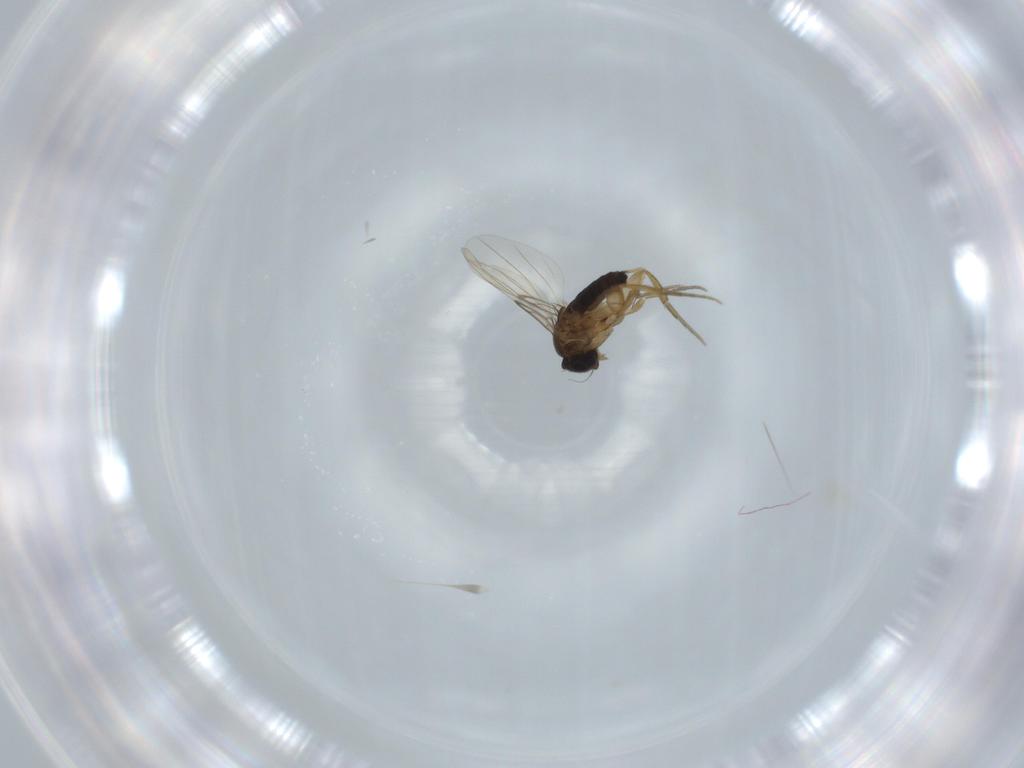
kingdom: Animalia
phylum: Arthropoda
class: Insecta
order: Diptera
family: Phoridae
